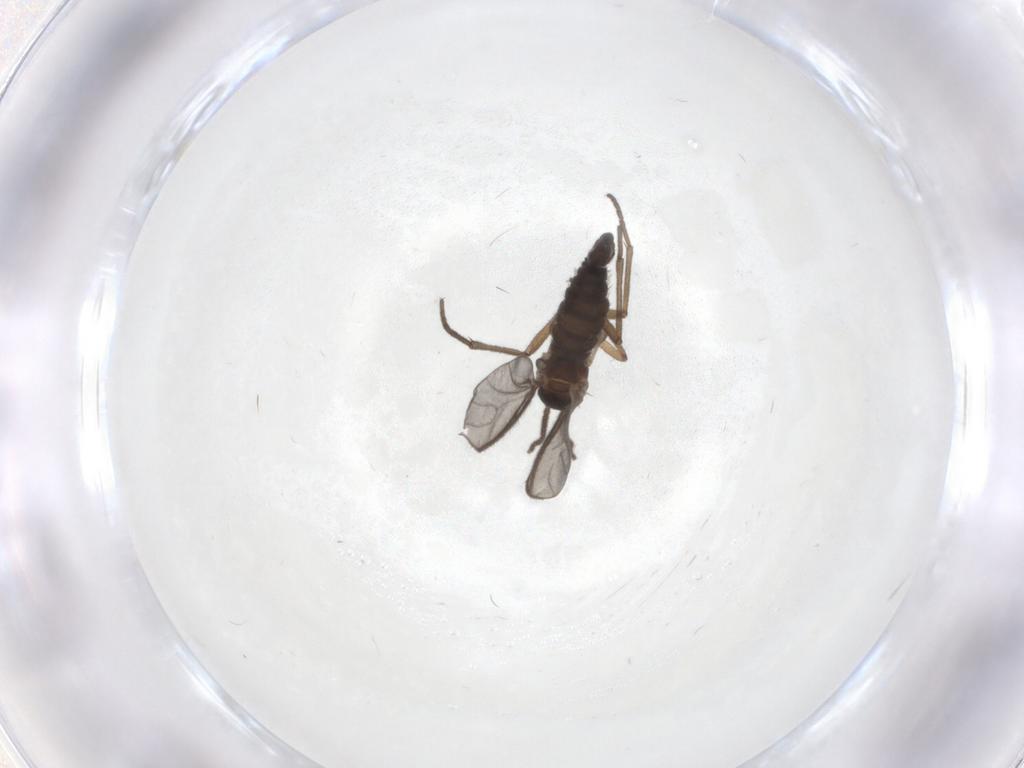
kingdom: Animalia
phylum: Arthropoda
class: Insecta
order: Diptera
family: Sciaridae
